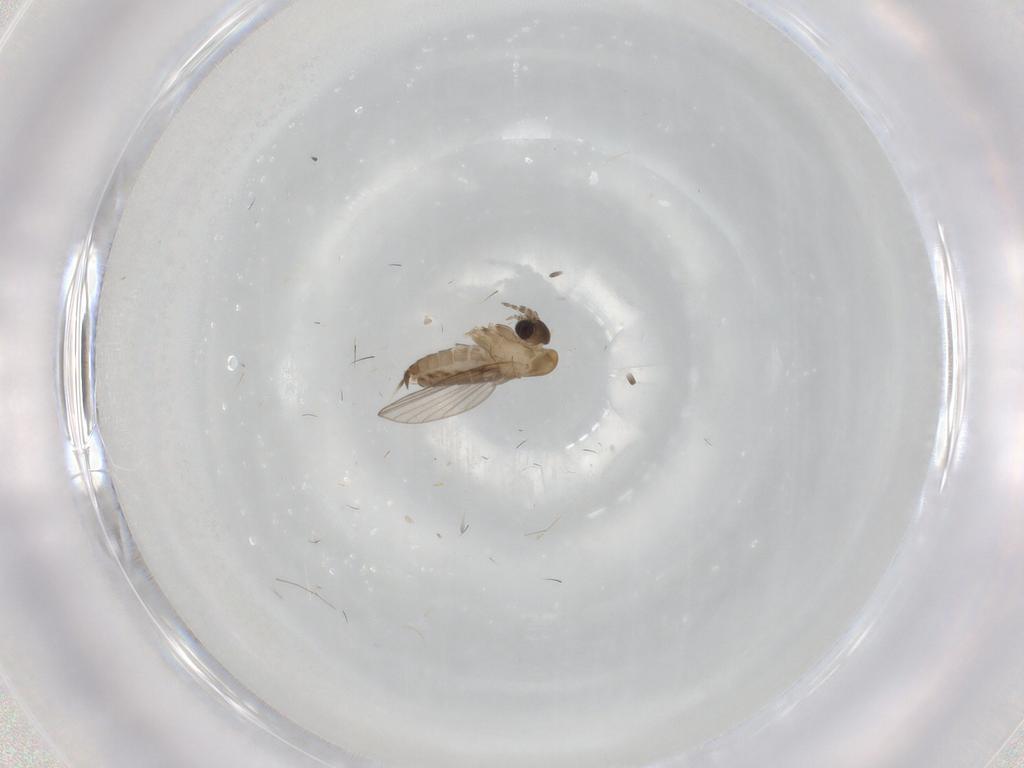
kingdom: Animalia
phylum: Arthropoda
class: Insecta
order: Diptera
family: Psychodidae
